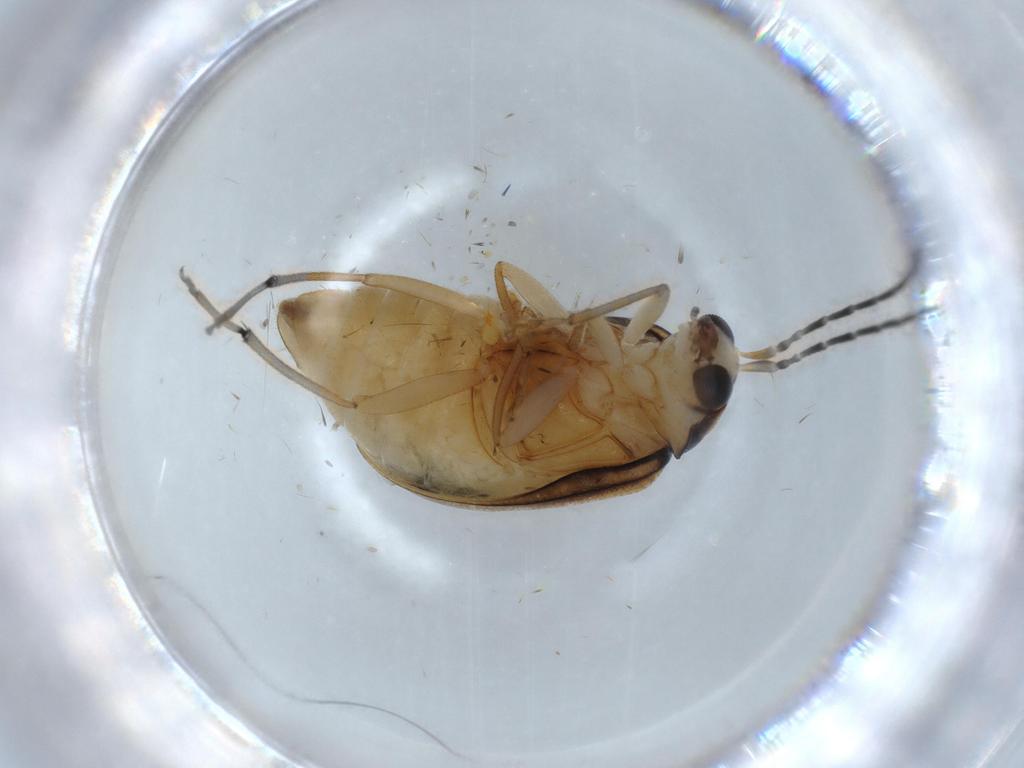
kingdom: Animalia
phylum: Arthropoda
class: Insecta
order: Coleoptera
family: Chrysomelidae
